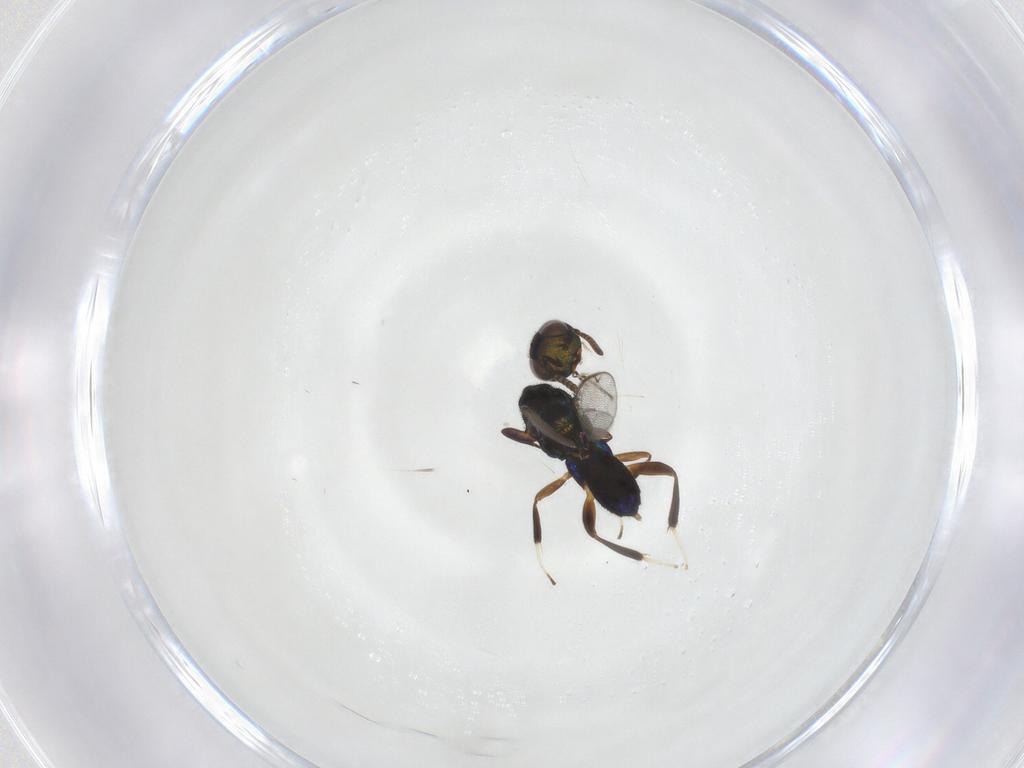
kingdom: Animalia
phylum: Arthropoda
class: Insecta
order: Hymenoptera
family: Cleonyminae
